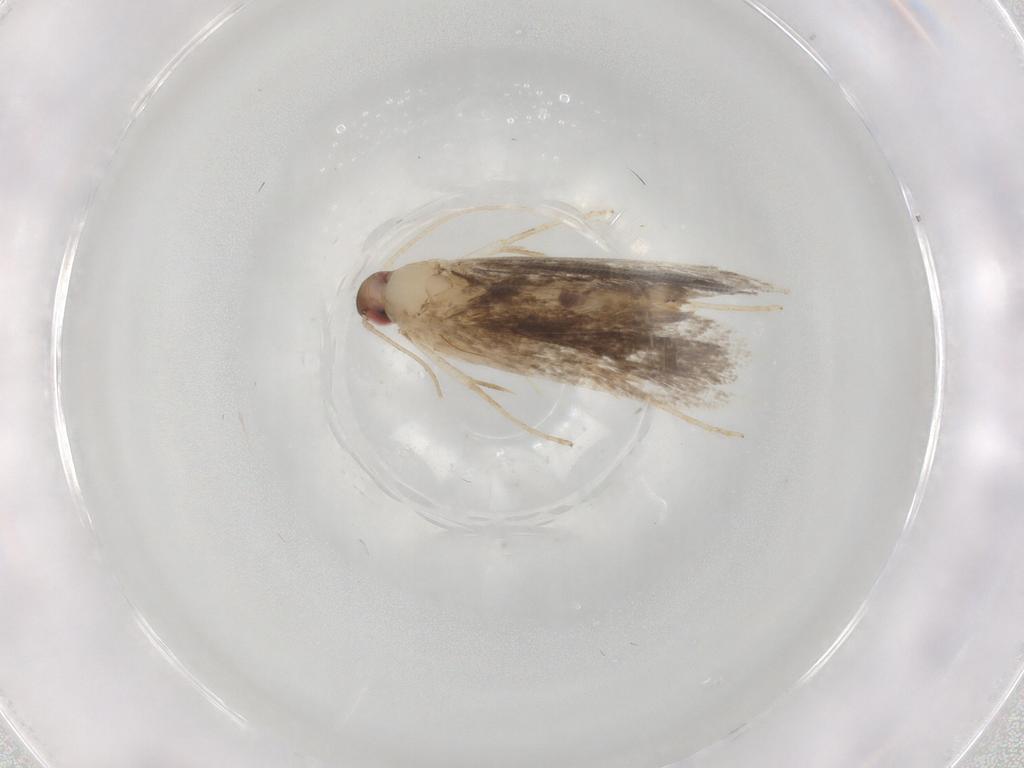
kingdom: Animalia
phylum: Arthropoda
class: Insecta
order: Lepidoptera
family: Gelechiidae
